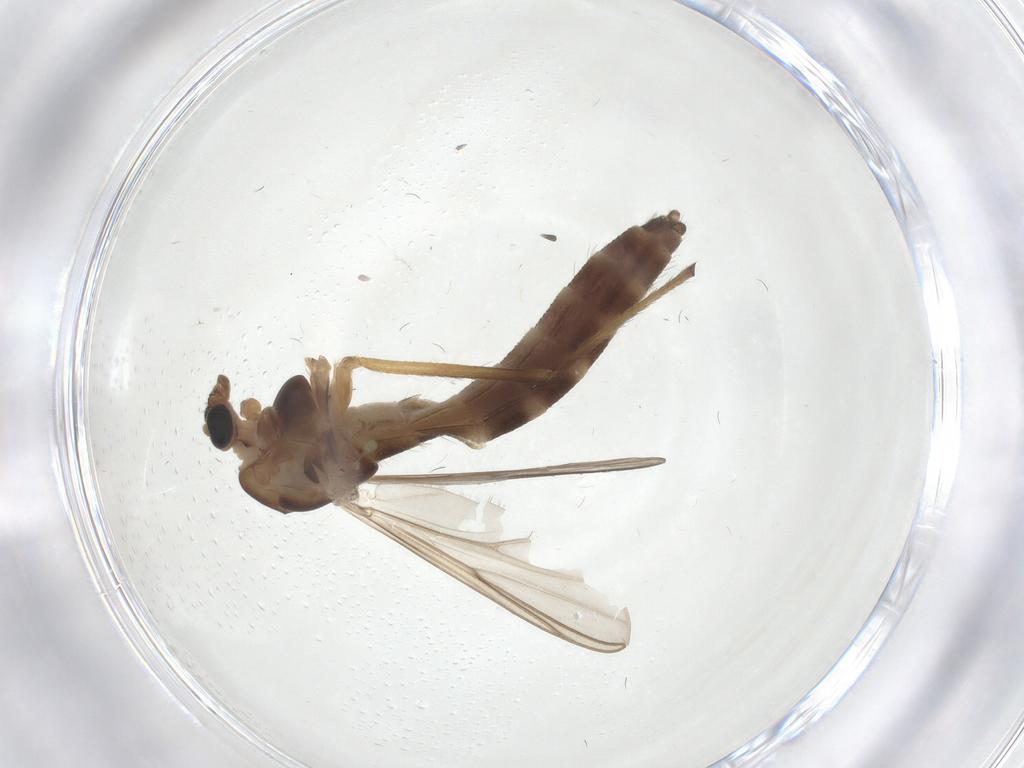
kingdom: Animalia
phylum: Arthropoda
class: Insecta
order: Diptera
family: Chironomidae
